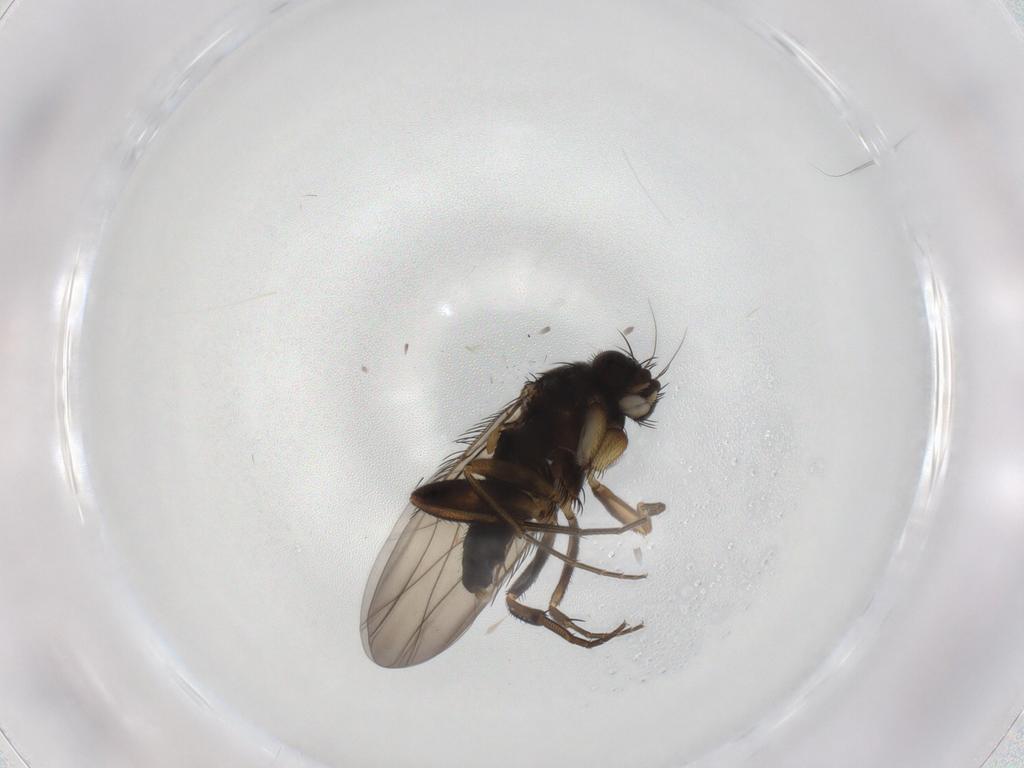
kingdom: Animalia
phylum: Arthropoda
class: Insecta
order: Diptera
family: Phoridae
